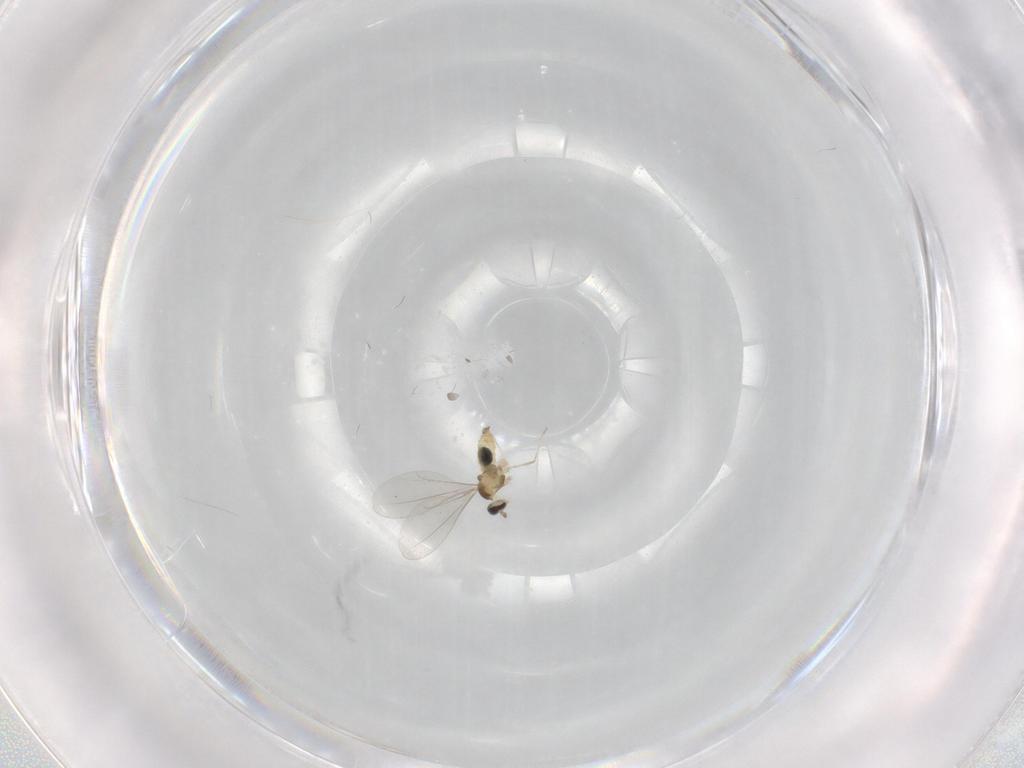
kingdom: Animalia
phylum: Arthropoda
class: Insecta
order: Diptera
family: Cecidomyiidae
